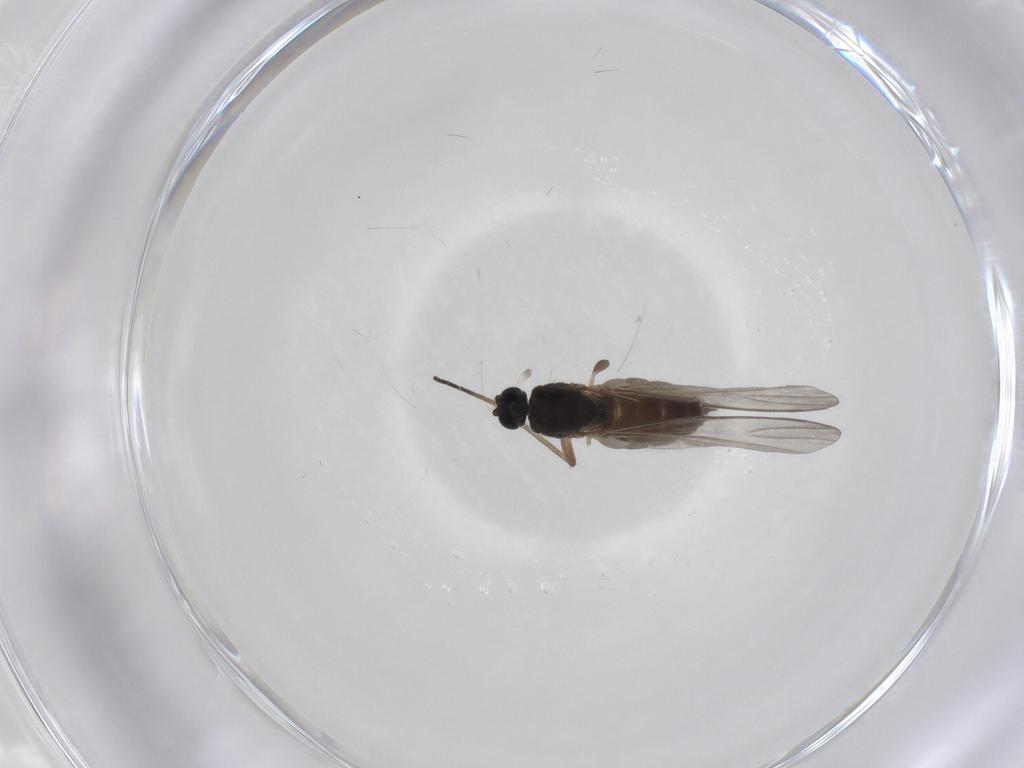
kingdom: Animalia
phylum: Arthropoda
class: Insecta
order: Diptera
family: Sciaridae
